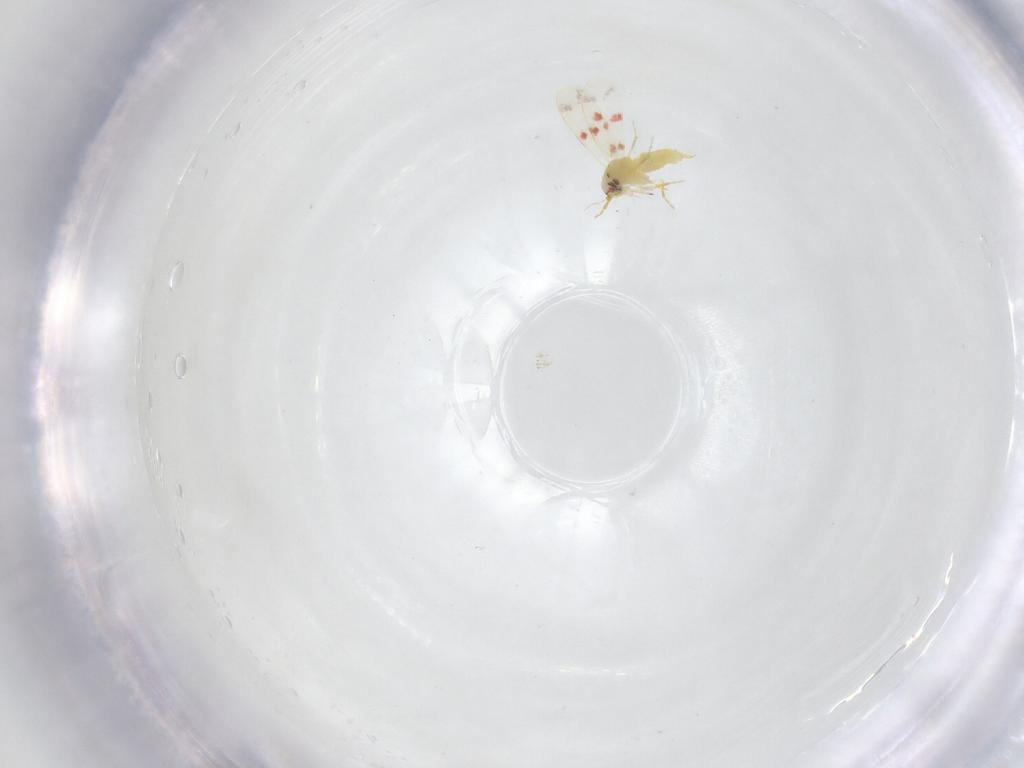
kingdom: Animalia
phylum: Arthropoda
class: Insecta
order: Hemiptera
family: Aleyrodidae
